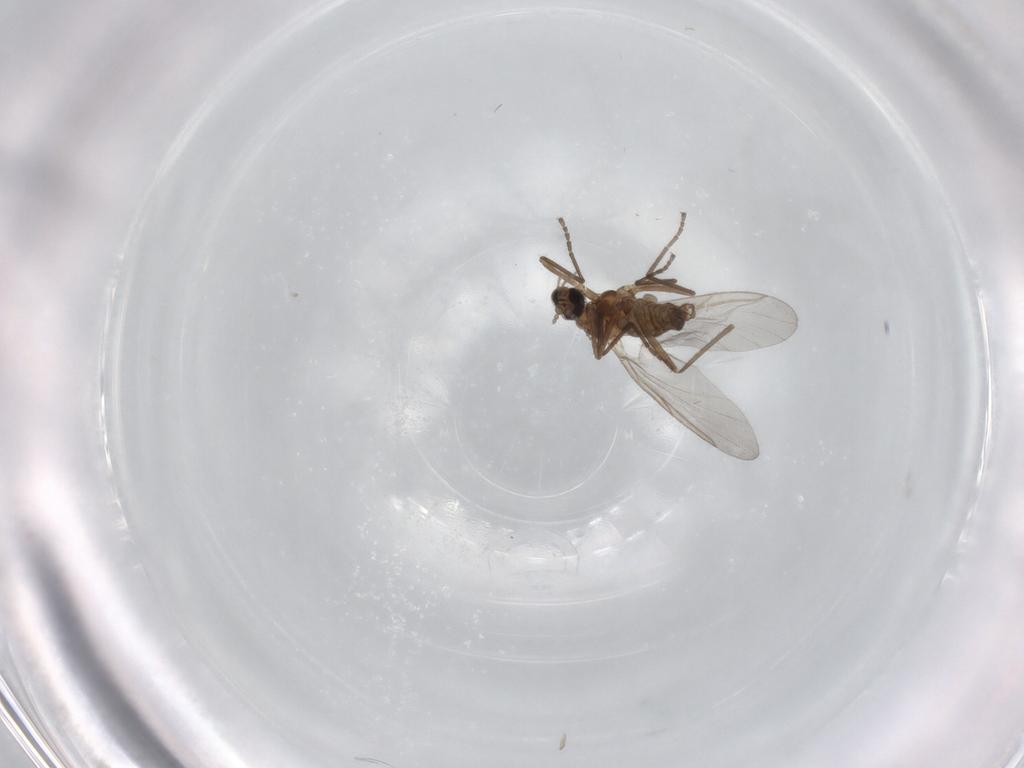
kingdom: Animalia
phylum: Arthropoda
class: Insecta
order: Diptera
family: Cecidomyiidae
